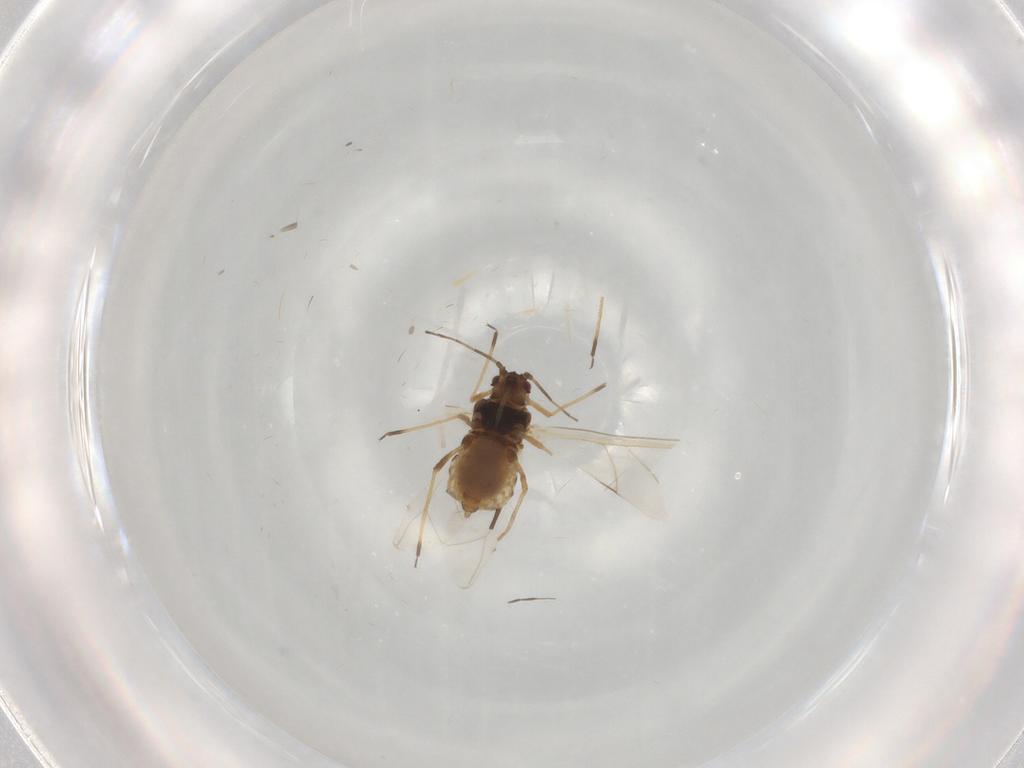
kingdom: Animalia
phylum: Arthropoda
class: Insecta
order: Hemiptera
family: Aphididae
